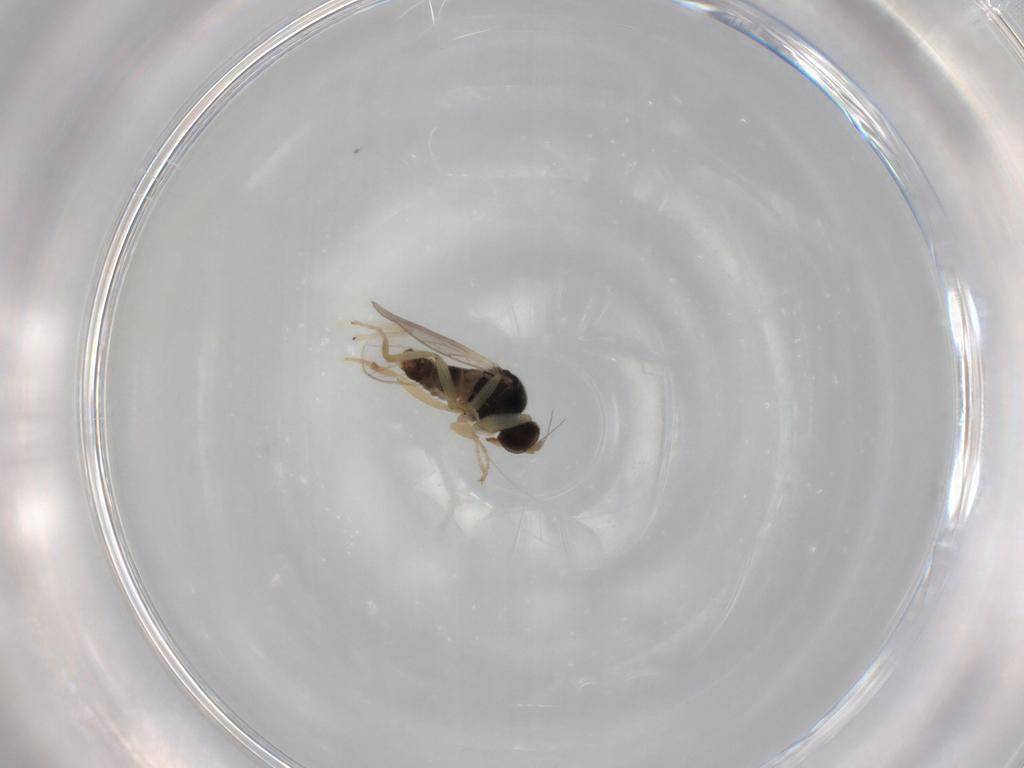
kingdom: Animalia
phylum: Arthropoda
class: Insecta
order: Diptera
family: Hybotidae
